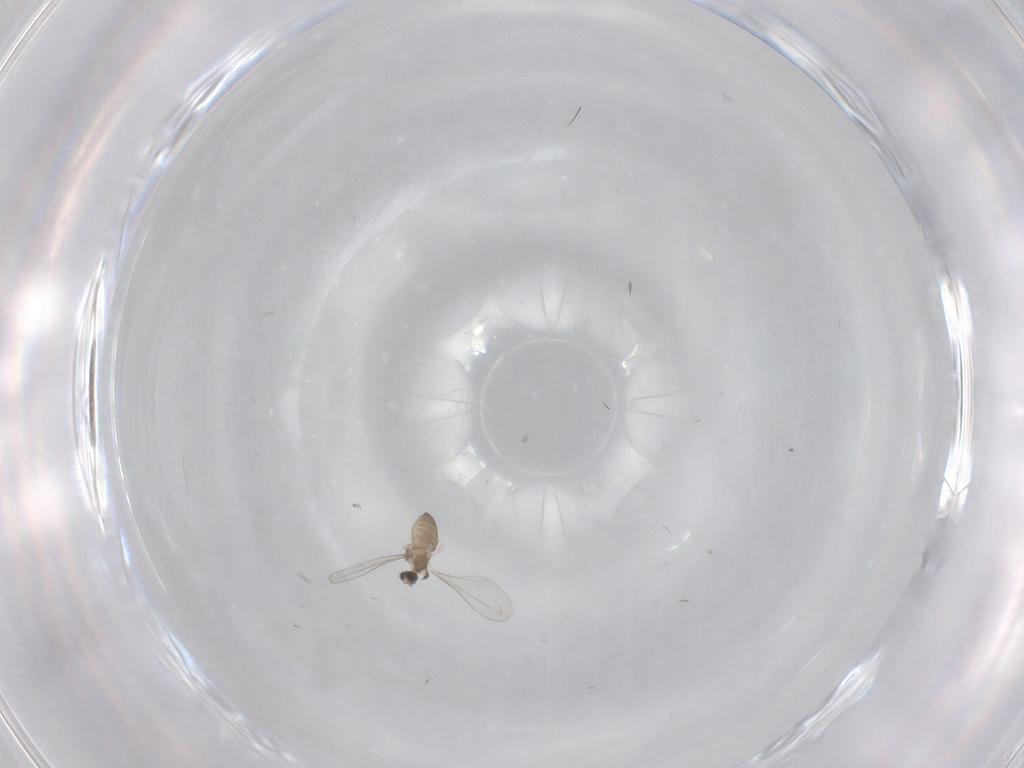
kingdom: Animalia
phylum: Arthropoda
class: Insecta
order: Diptera
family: Cecidomyiidae
